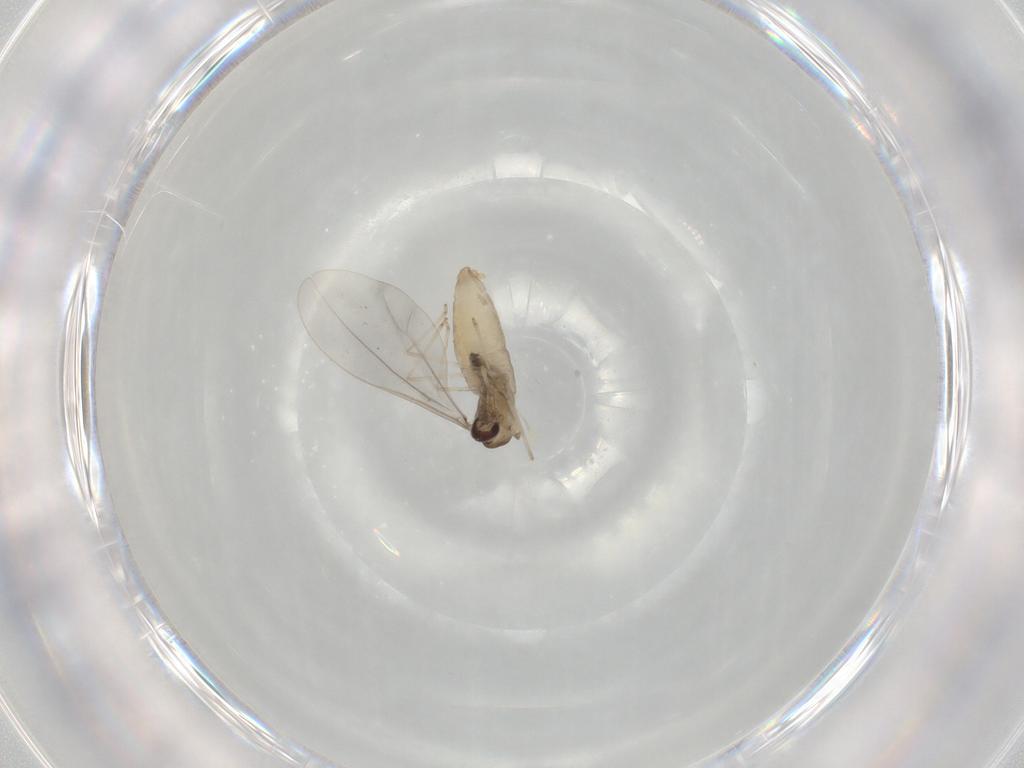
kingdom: Animalia
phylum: Arthropoda
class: Insecta
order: Diptera
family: Cecidomyiidae
